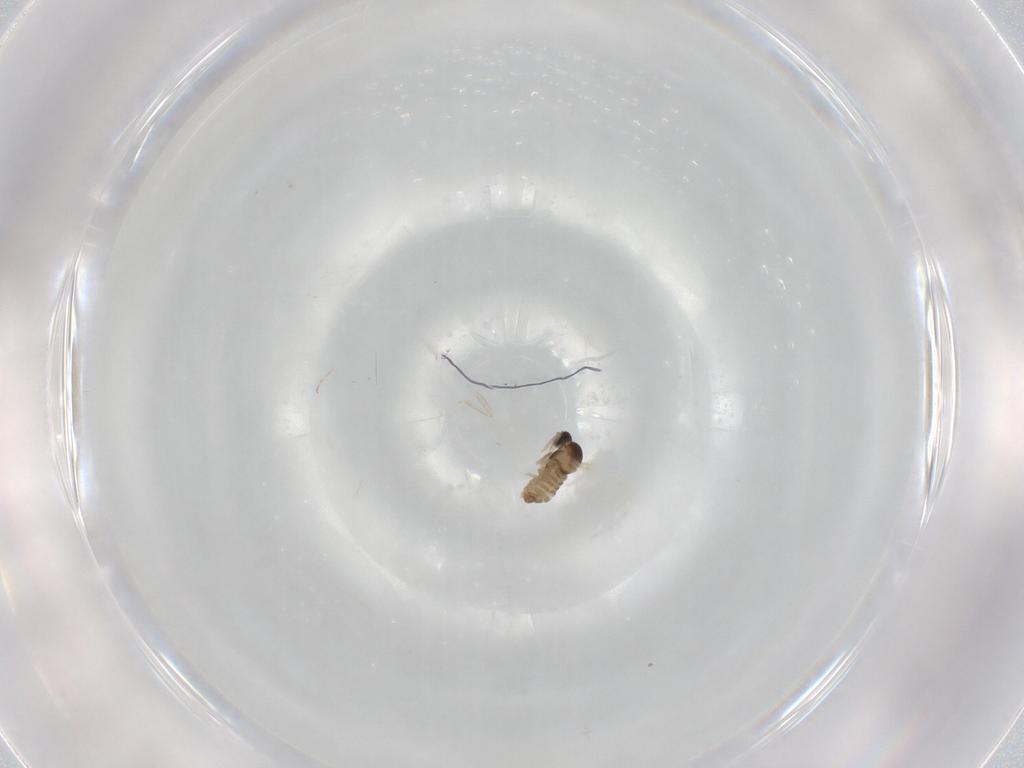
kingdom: Animalia
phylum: Arthropoda
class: Insecta
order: Diptera
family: Cecidomyiidae
